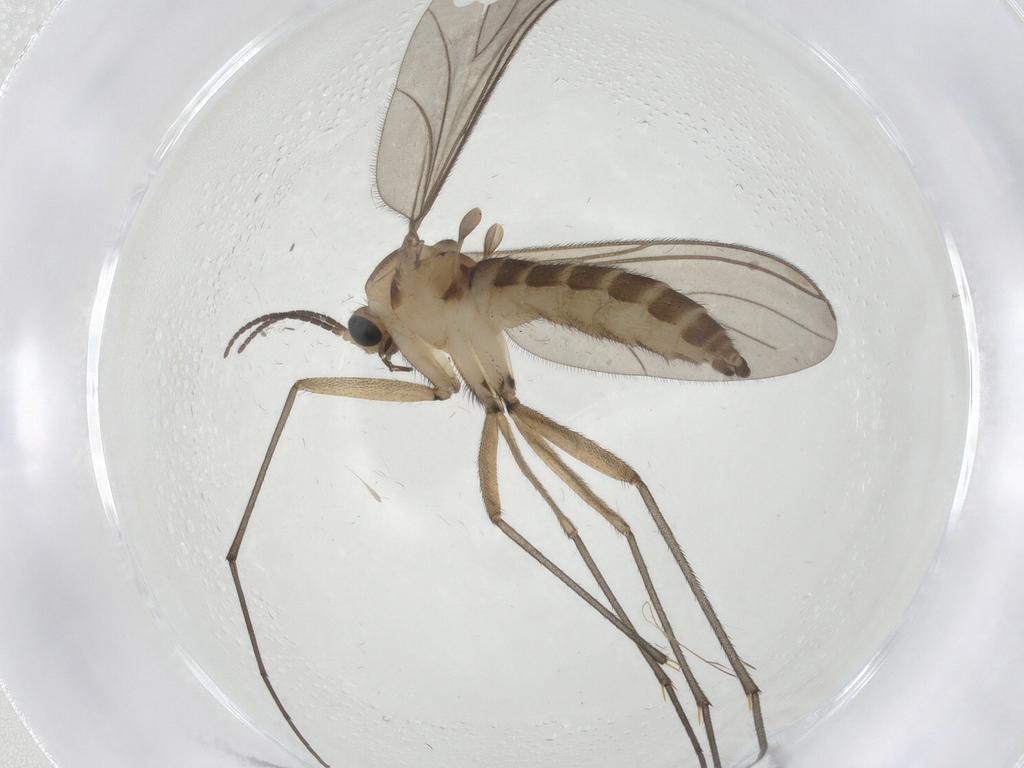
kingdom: Animalia
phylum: Arthropoda
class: Insecta
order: Diptera
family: Sciaridae
